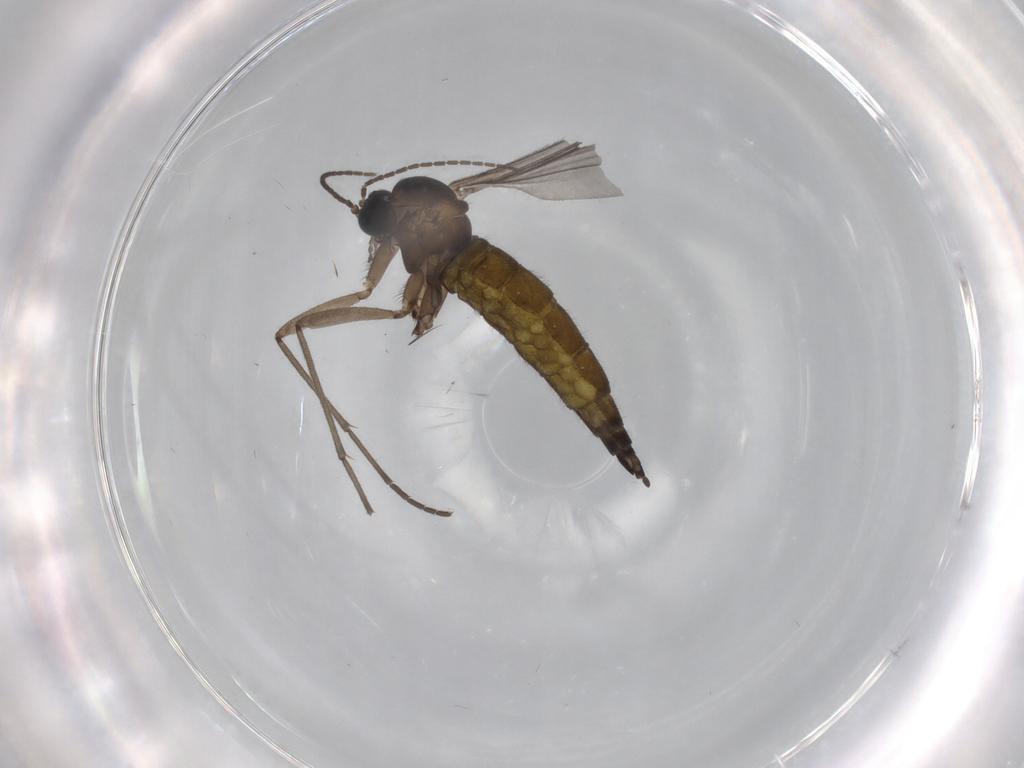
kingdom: Animalia
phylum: Arthropoda
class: Insecta
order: Diptera
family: Sciaridae
